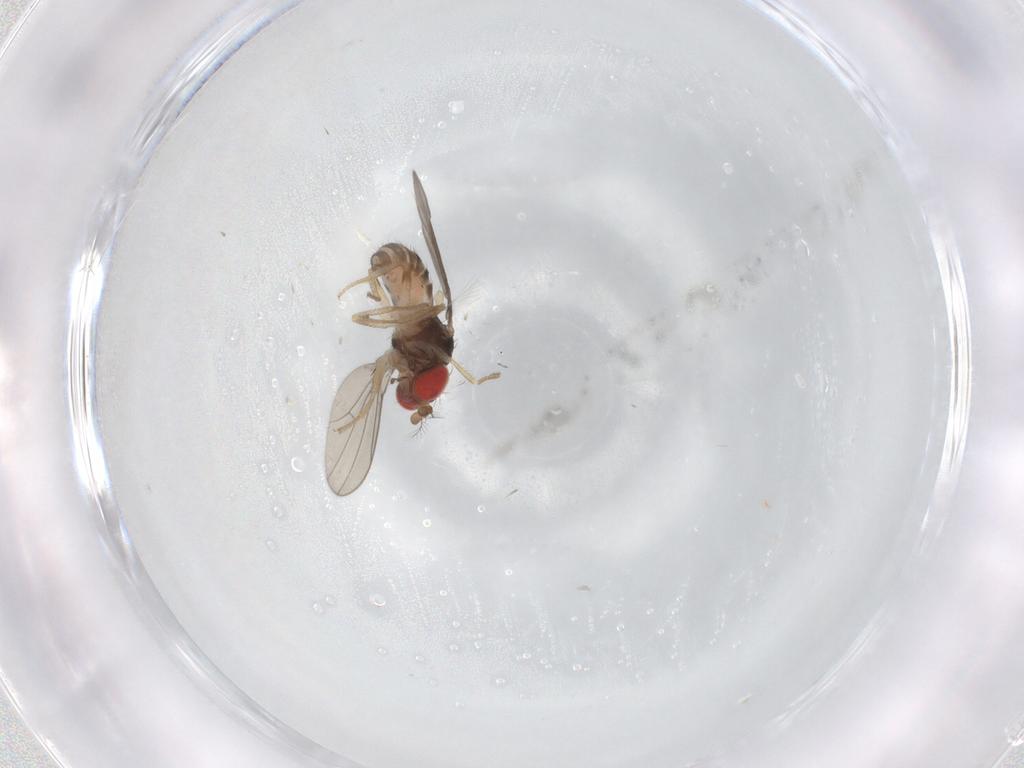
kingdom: Animalia
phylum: Arthropoda
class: Insecta
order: Diptera
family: Drosophilidae
